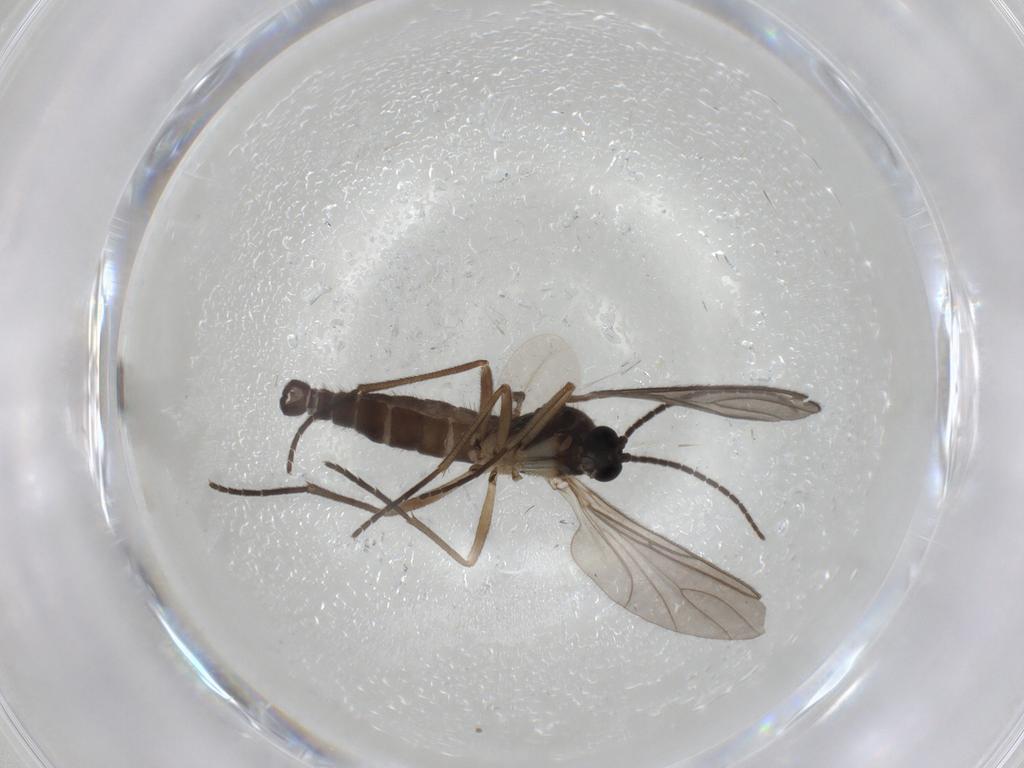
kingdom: Animalia
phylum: Arthropoda
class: Insecta
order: Diptera
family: Sciaridae
